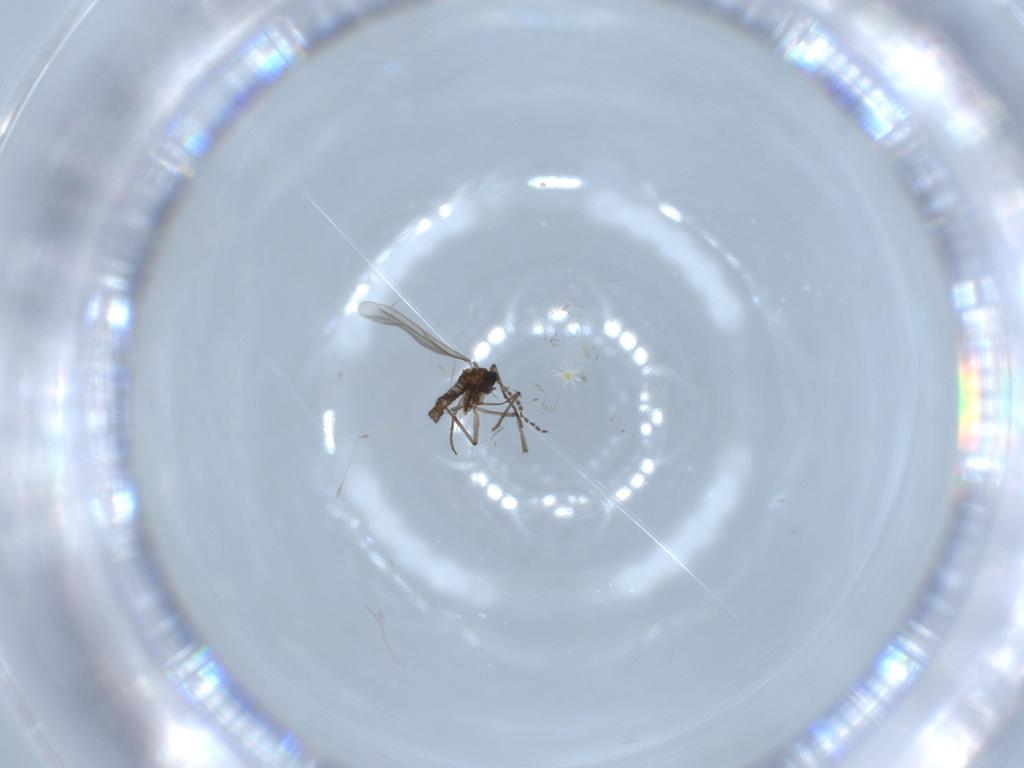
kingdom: Animalia
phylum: Arthropoda
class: Insecta
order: Diptera
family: Sciaridae
